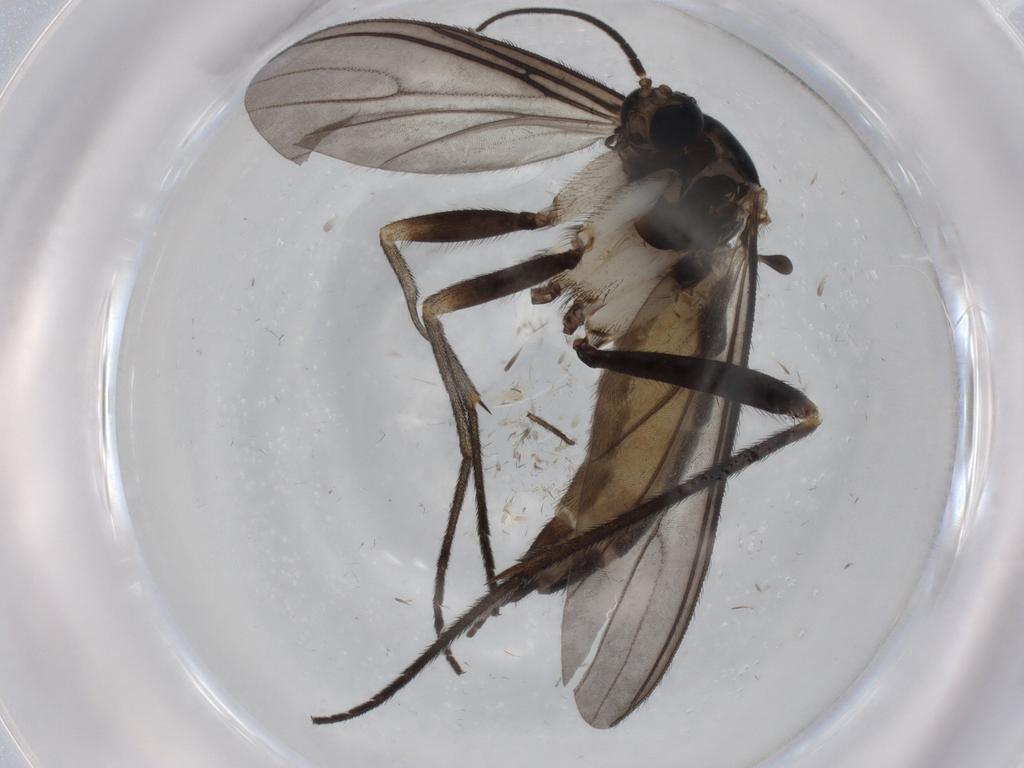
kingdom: Animalia
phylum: Arthropoda
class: Insecta
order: Diptera
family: Sciaridae
